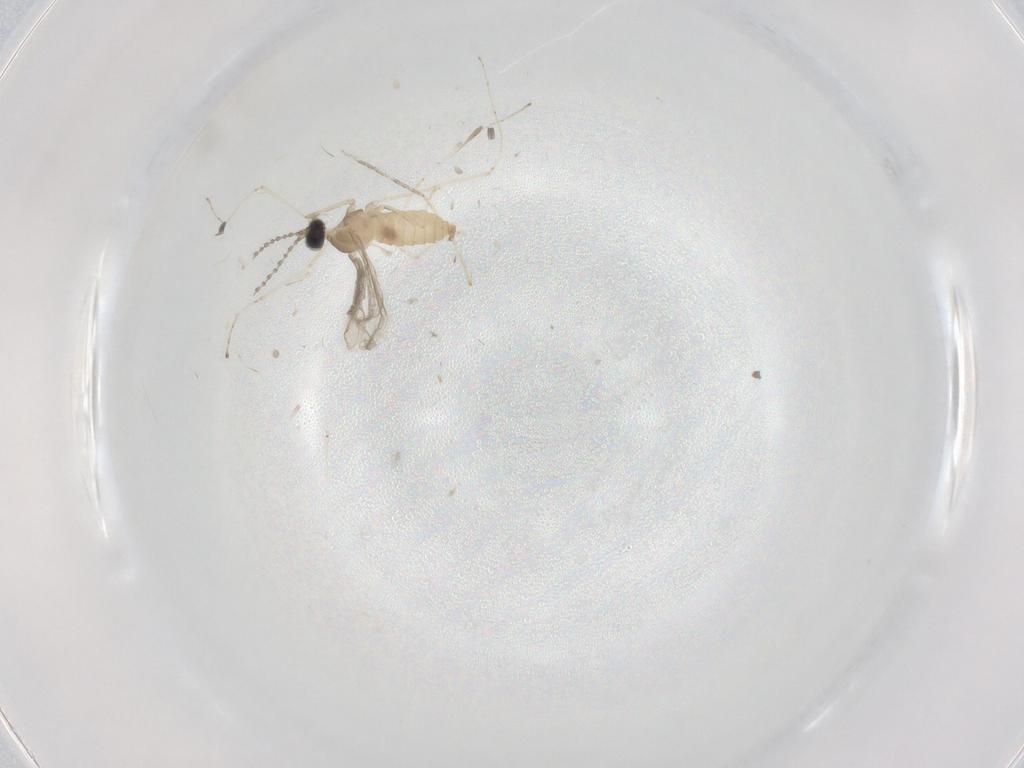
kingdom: Animalia
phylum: Arthropoda
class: Insecta
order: Diptera
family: Cecidomyiidae
